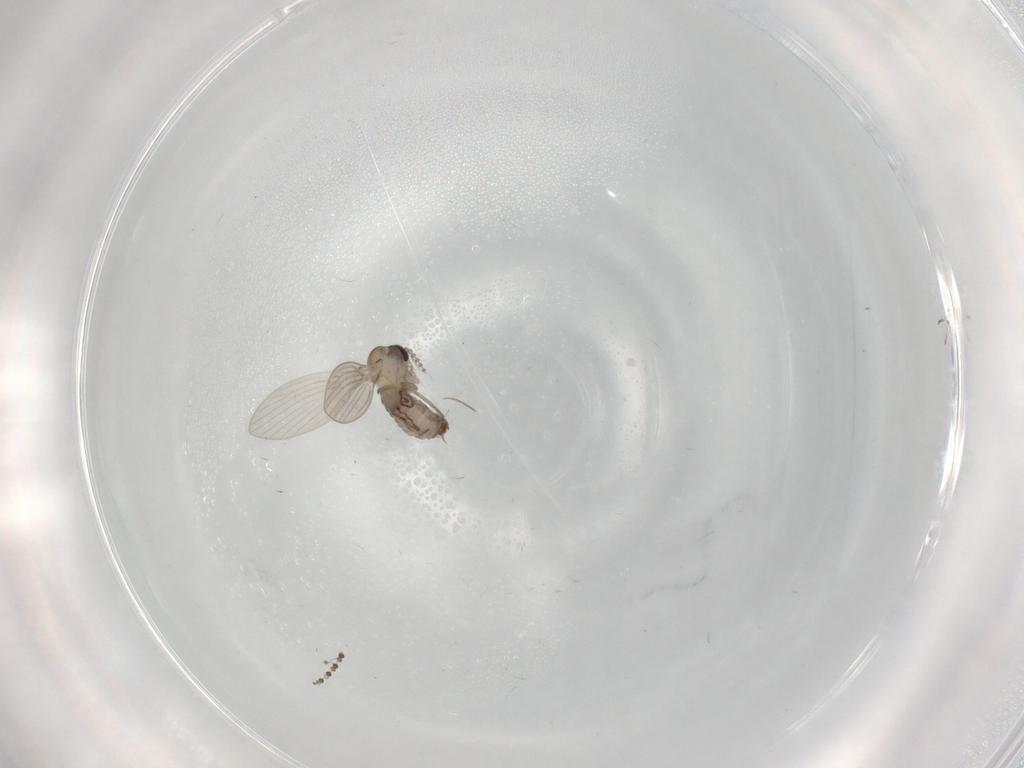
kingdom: Animalia
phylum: Arthropoda
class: Insecta
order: Diptera
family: Psychodidae
